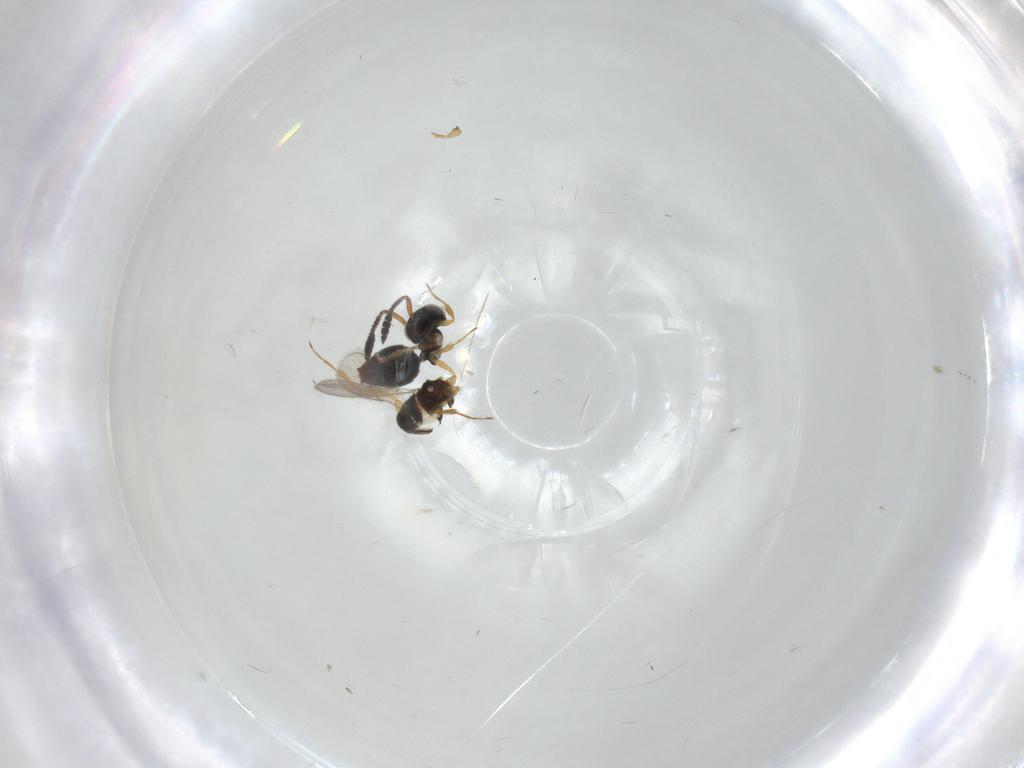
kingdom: Animalia
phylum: Arthropoda
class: Insecta
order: Hymenoptera
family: Scelionidae
